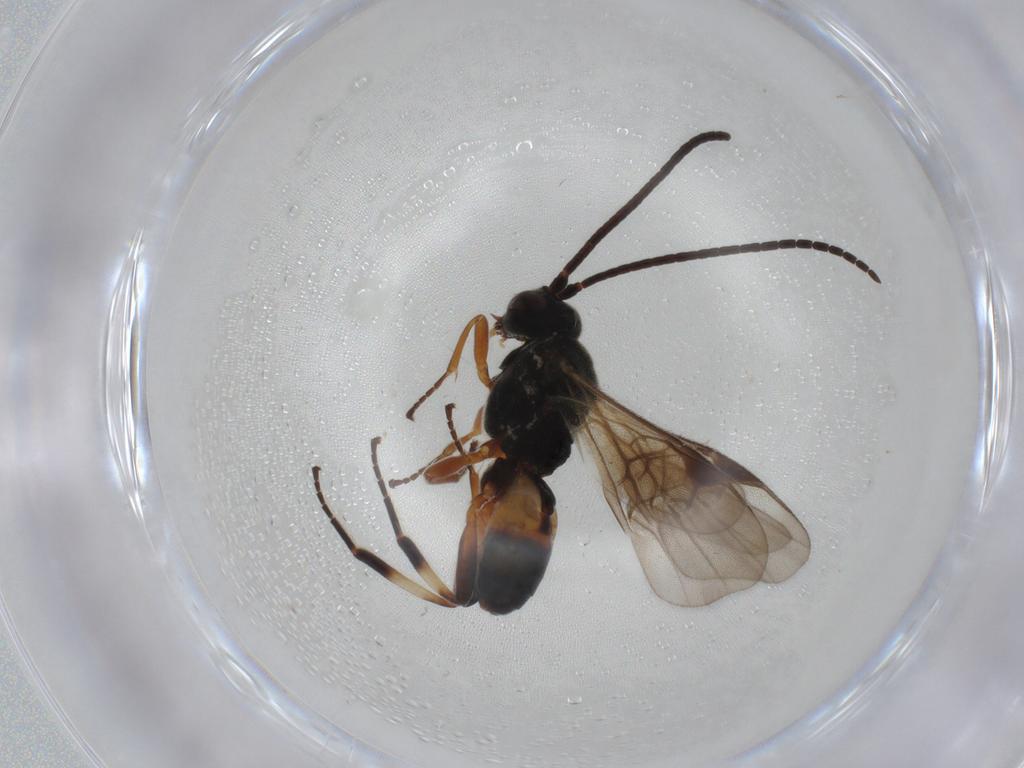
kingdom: Animalia
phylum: Arthropoda
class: Insecta
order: Hymenoptera
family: Braconidae
